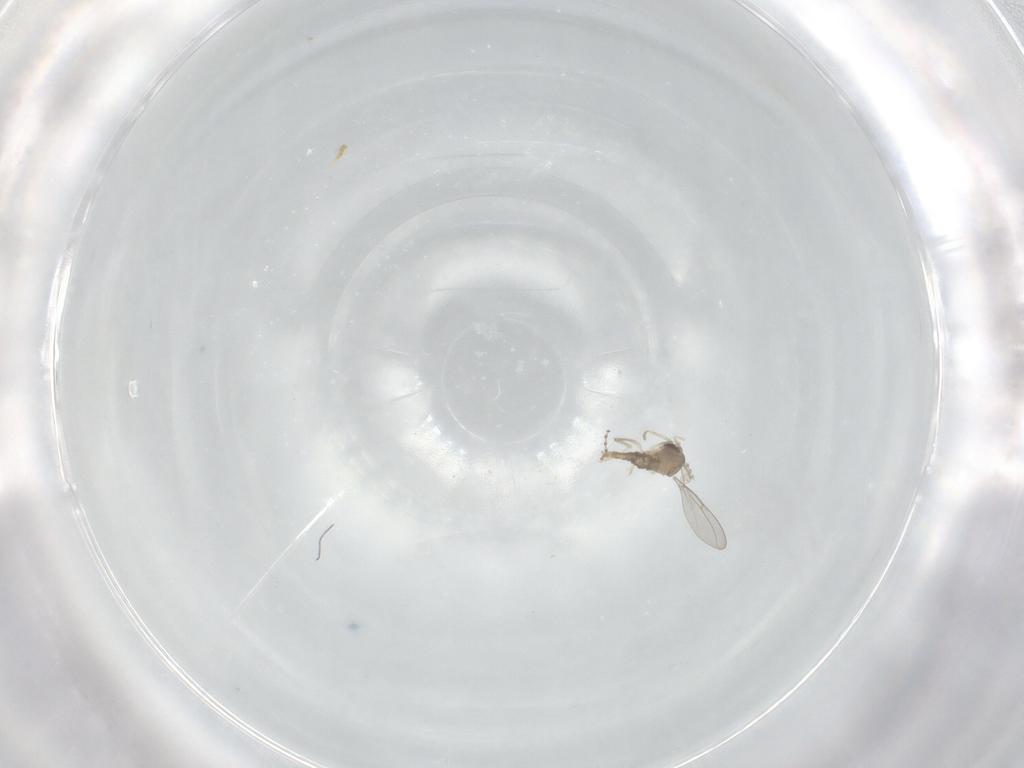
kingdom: Animalia
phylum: Arthropoda
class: Insecta
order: Diptera
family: Cecidomyiidae
